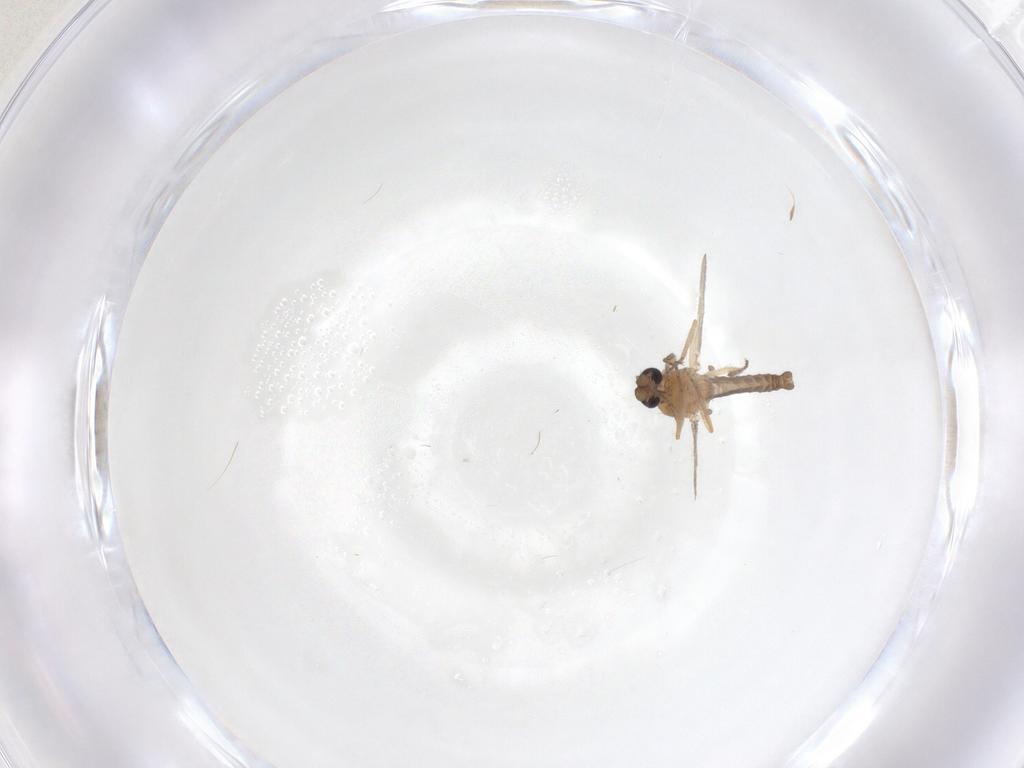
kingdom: Animalia
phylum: Arthropoda
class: Insecta
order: Diptera
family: Ceratopogonidae
